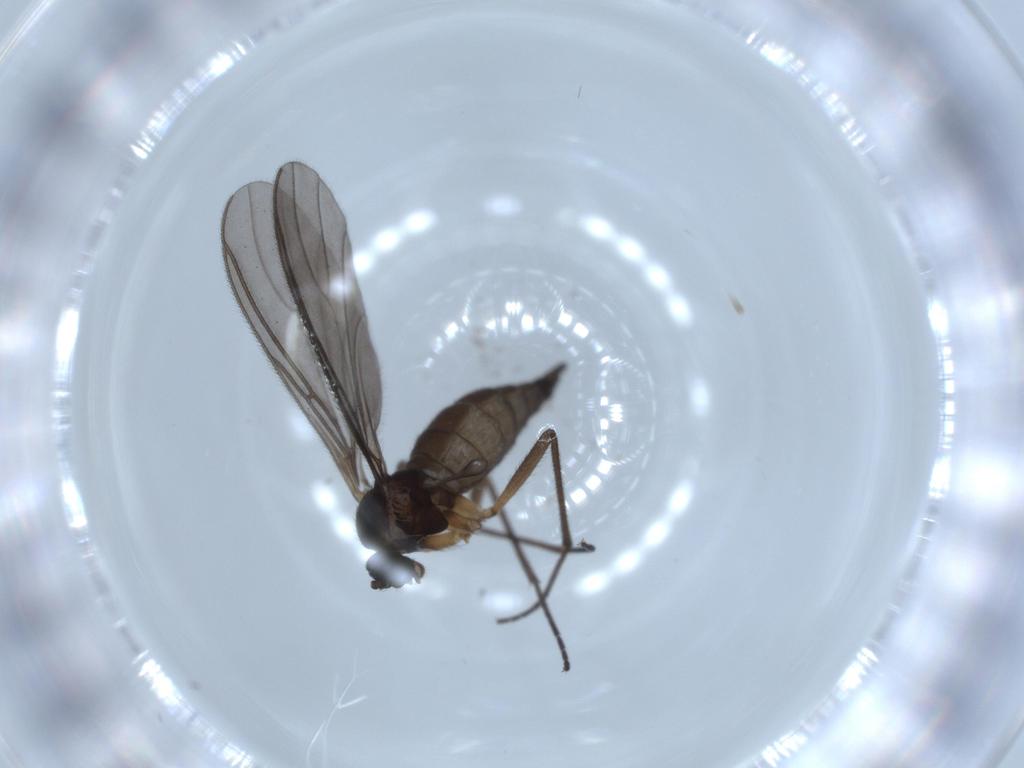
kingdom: Animalia
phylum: Arthropoda
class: Insecta
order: Diptera
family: Sciaridae
